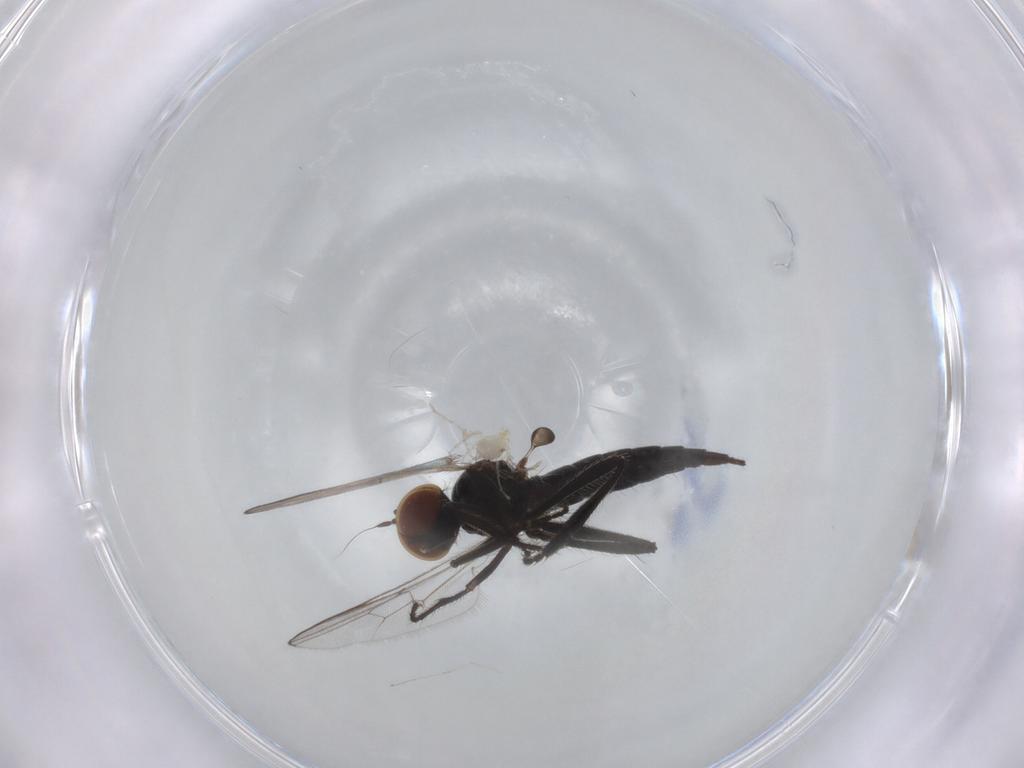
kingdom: Animalia
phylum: Arthropoda
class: Insecta
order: Diptera
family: Hybotidae
